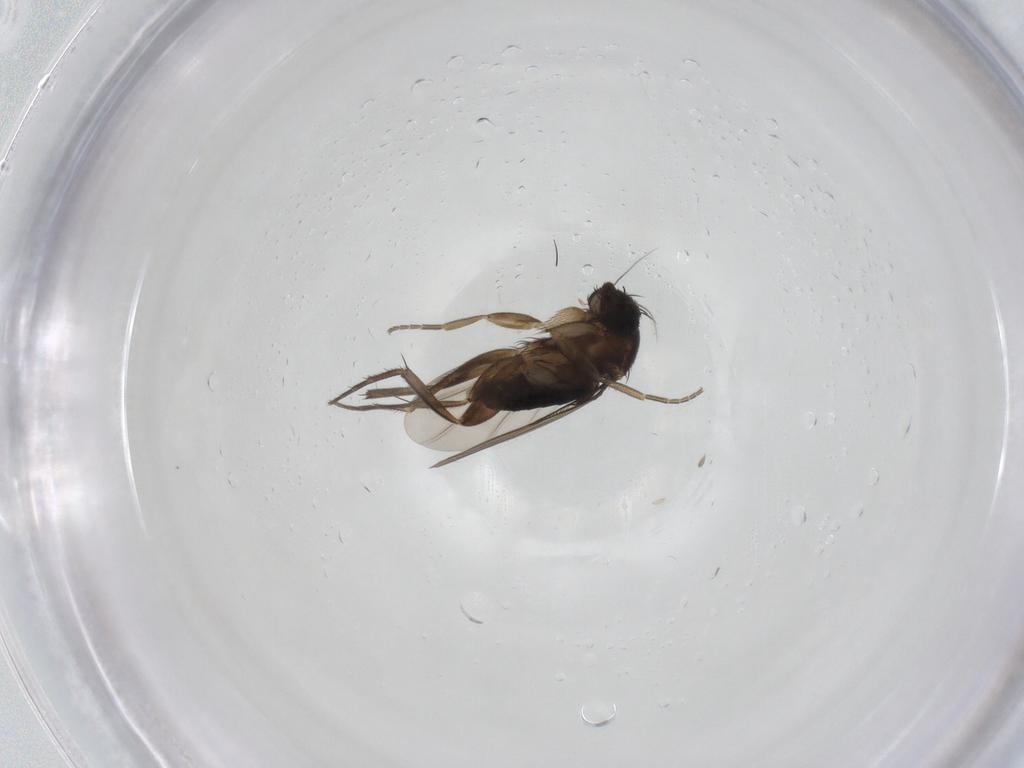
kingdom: Animalia
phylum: Arthropoda
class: Insecta
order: Diptera
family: Phoridae
